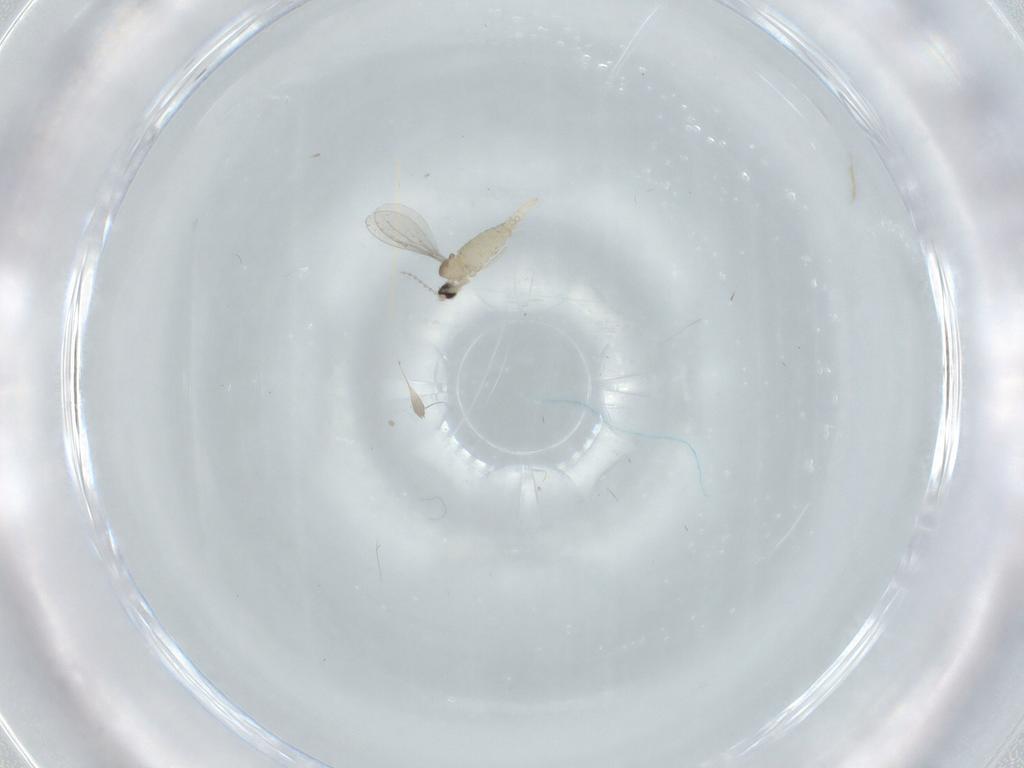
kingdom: Animalia
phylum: Arthropoda
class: Insecta
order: Diptera
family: Cecidomyiidae
